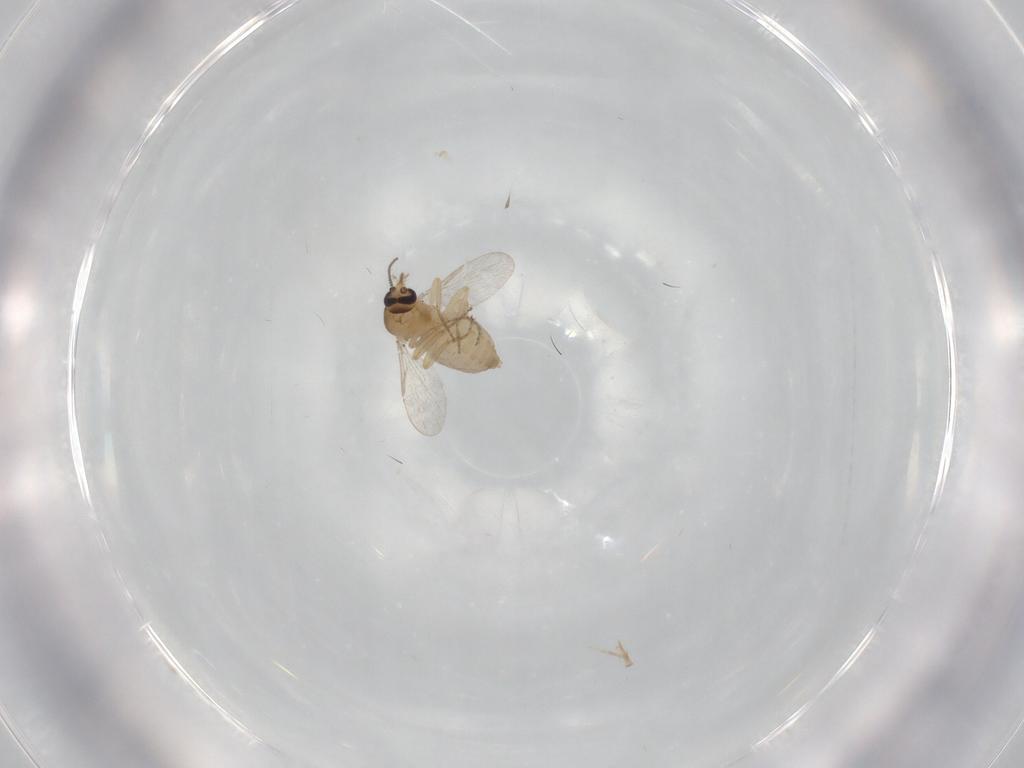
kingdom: Animalia
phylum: Arthropoda
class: Insecta
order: Diptera
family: Ceratopogonidae
